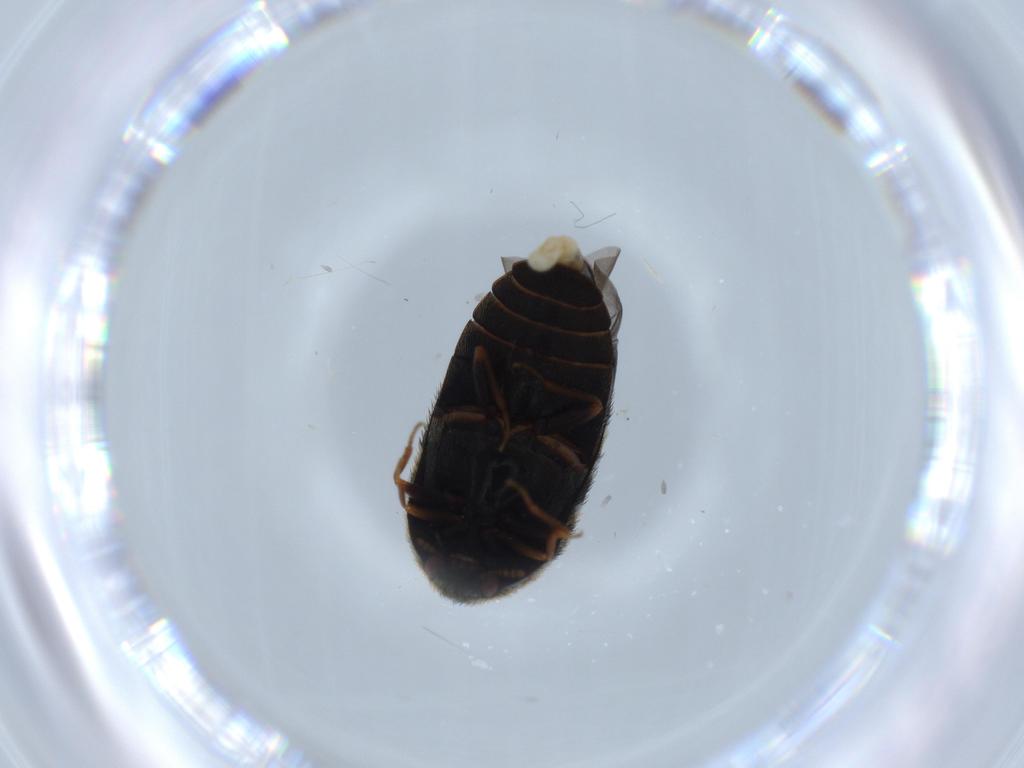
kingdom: Animalia
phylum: Arthropoda
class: Insecta
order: Coleoptera
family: Dermestidae
